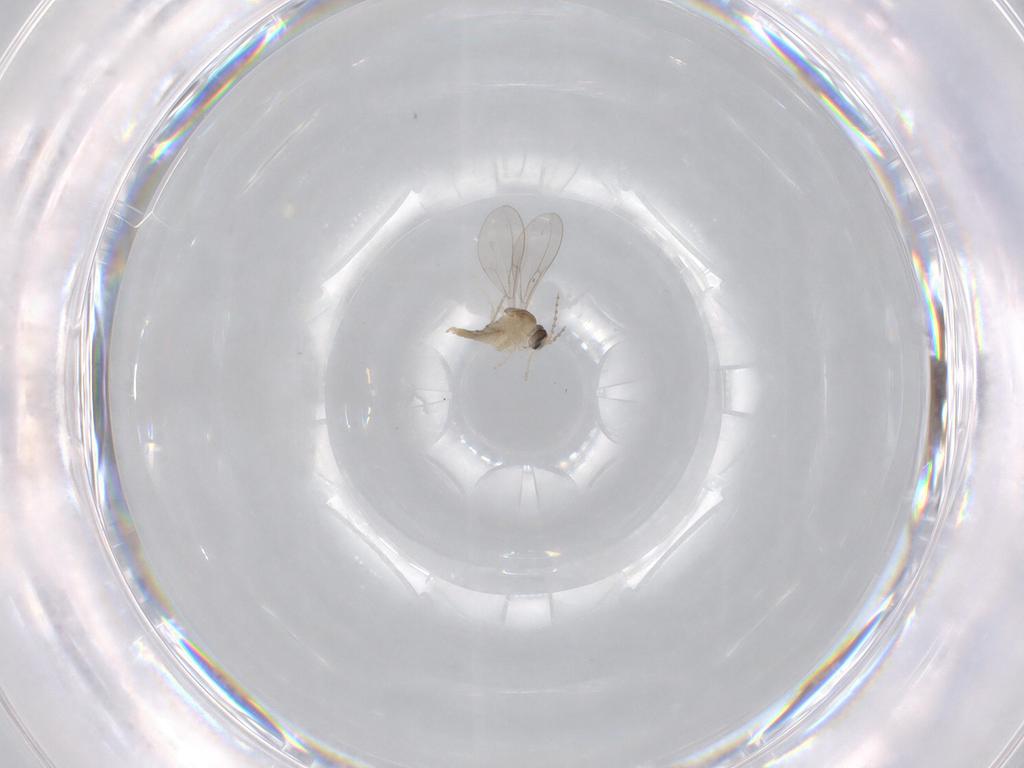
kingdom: Animalia
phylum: Arthropoda
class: Insecta
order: Diptera
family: Cecidomyiidae
